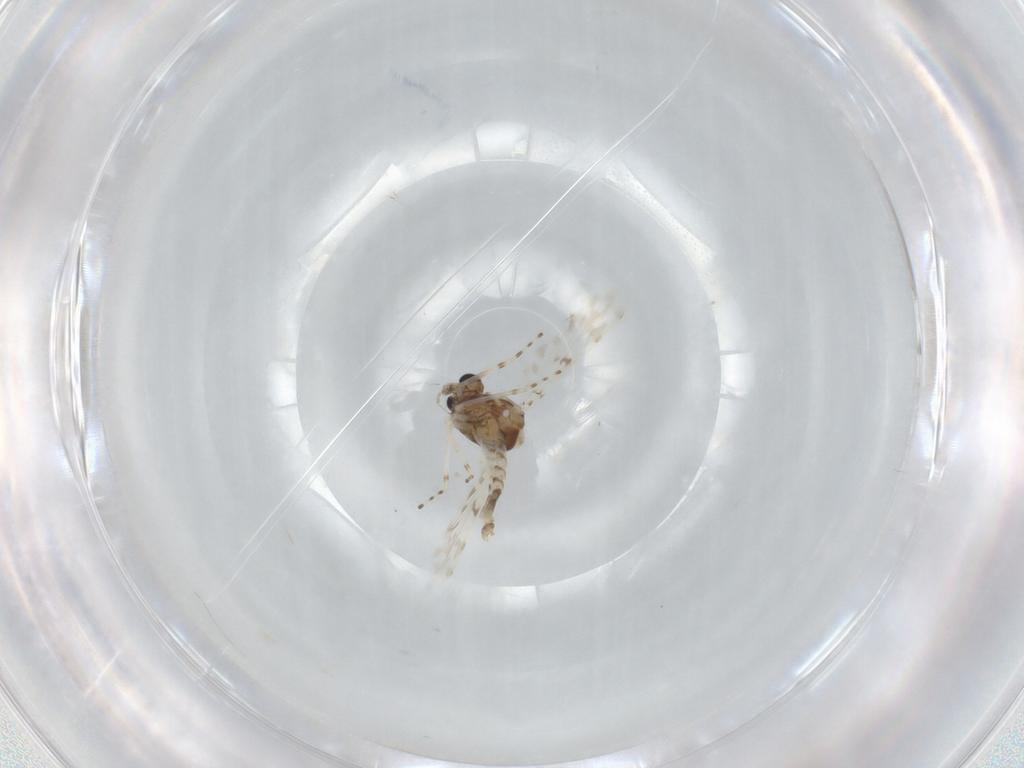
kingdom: Animalia
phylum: Arthropoda
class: Insecta
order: Diptera
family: Chironomidae
